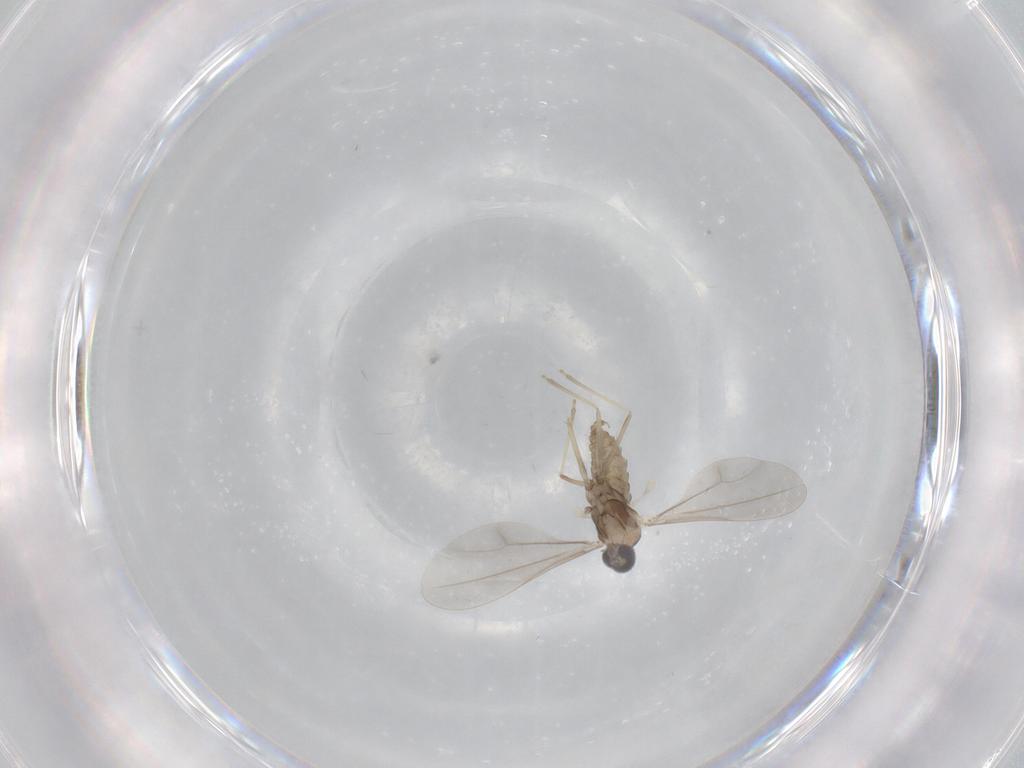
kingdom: Animalia
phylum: Arthropoda
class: Insecta
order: Diptera
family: Cecidomyiidae
